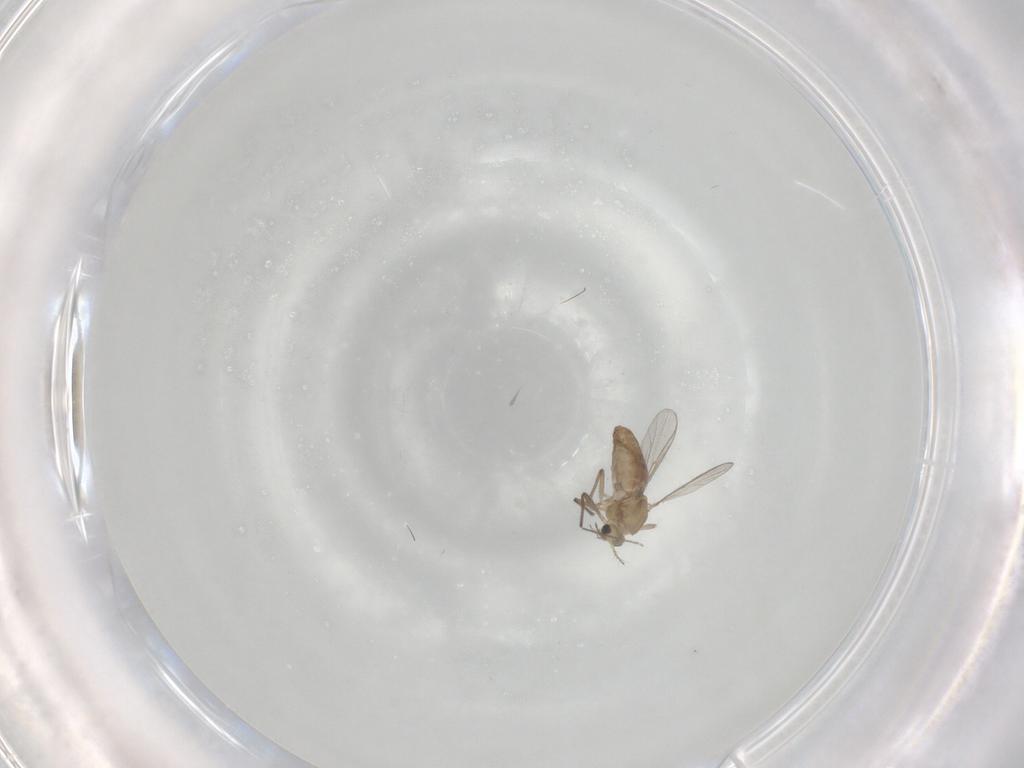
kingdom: Animalia
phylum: Arthropoda
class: Insecta
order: Diptera
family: Chironomidae
